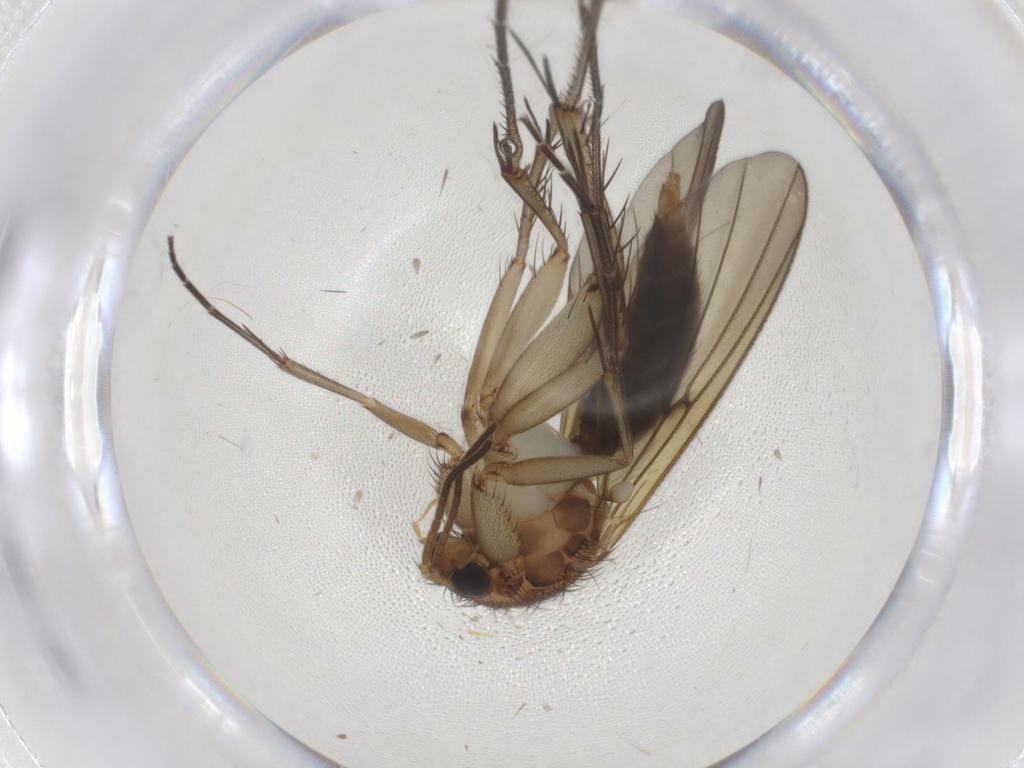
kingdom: Animalia
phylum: Arthropoda
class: Insecta
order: Diptera
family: Mycetophilidae
